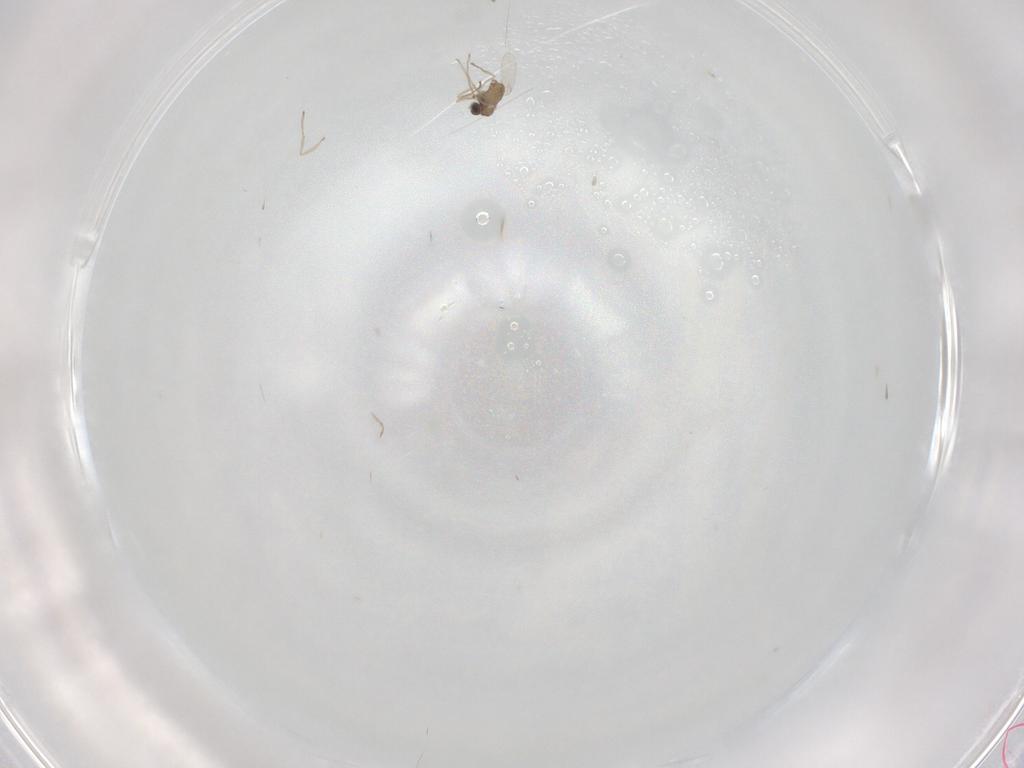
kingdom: Animalia
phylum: Arthropoda
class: Insecta
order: Diptera
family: Cecidomyiidae
